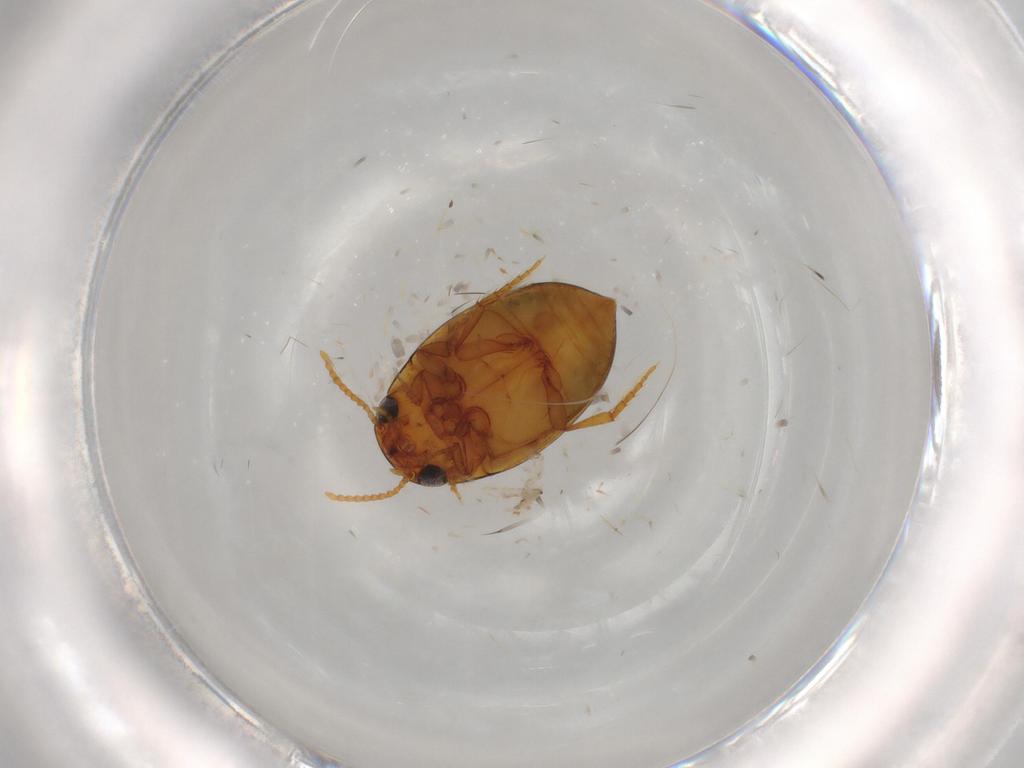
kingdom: Animalia
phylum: Arthropoda
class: Insecta
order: Coleoptera
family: Dytiscidae
